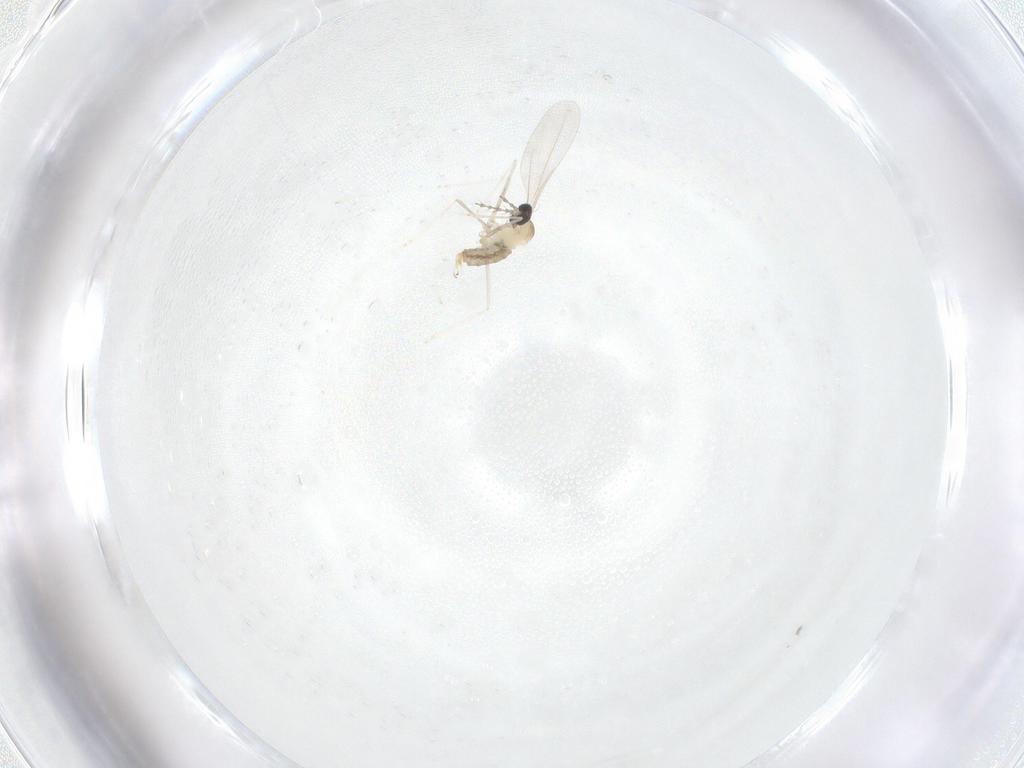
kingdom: Animalia
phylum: Arthropoda
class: Insecta
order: Diptera
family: Cecidomyiidae
